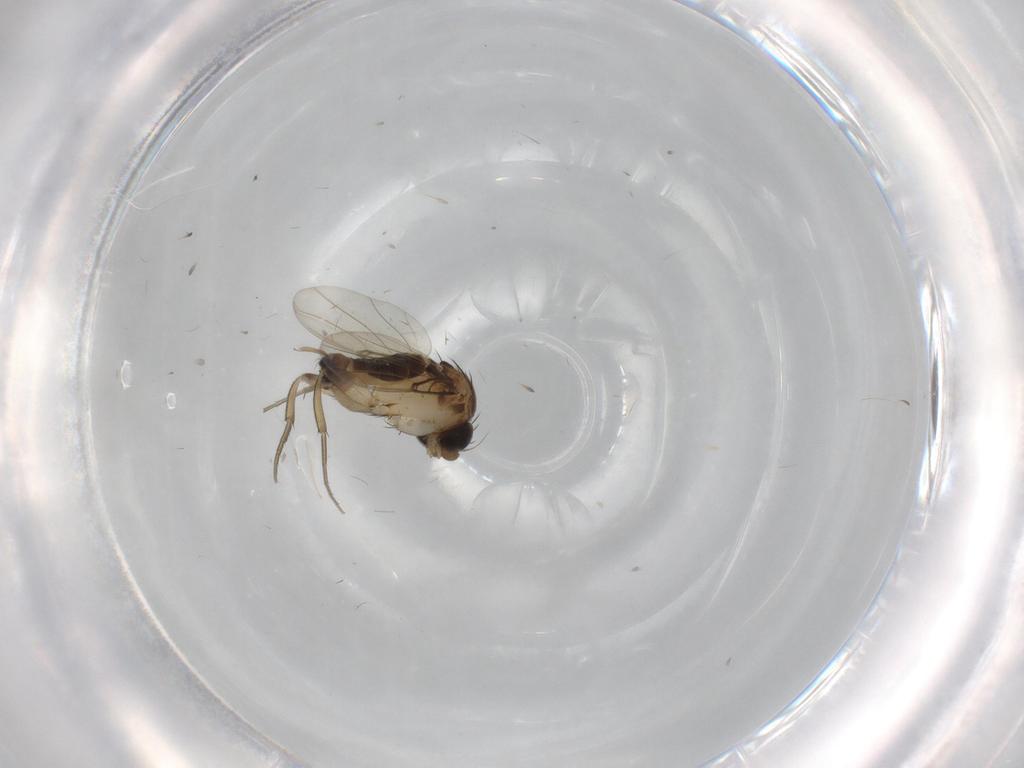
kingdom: Animalia
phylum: Arthropoda
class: Insecta
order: Diptera
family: Phoridae
